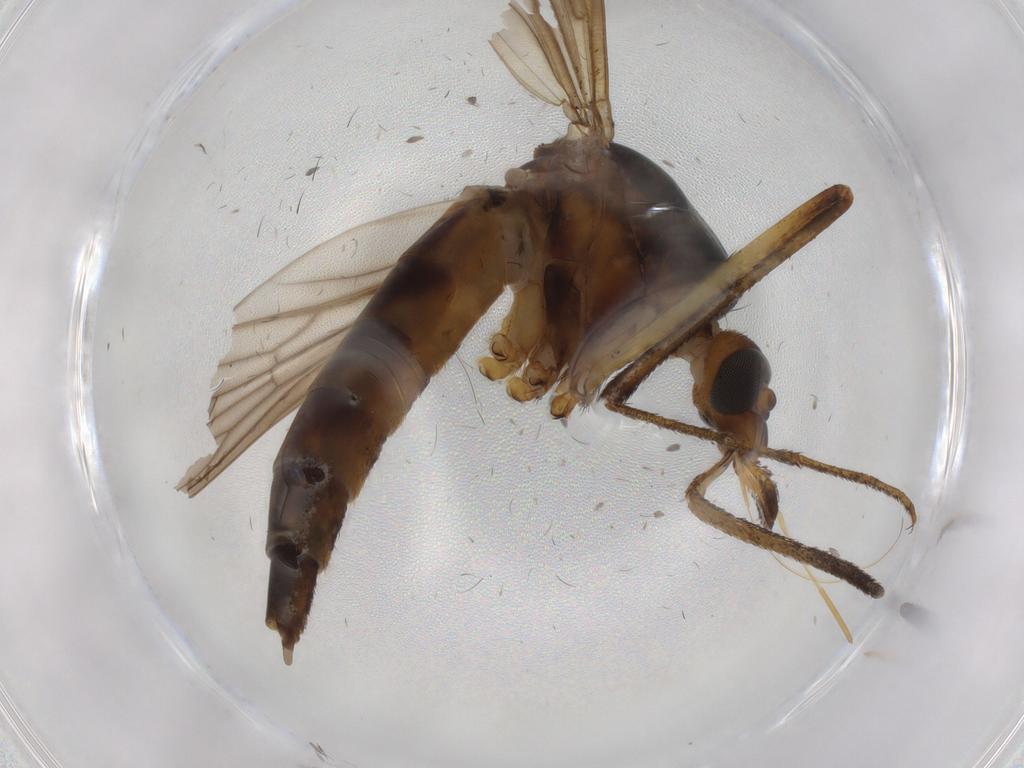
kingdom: Animalia
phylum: Arthropoda
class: Insecta
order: Diptera
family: Phoridae
